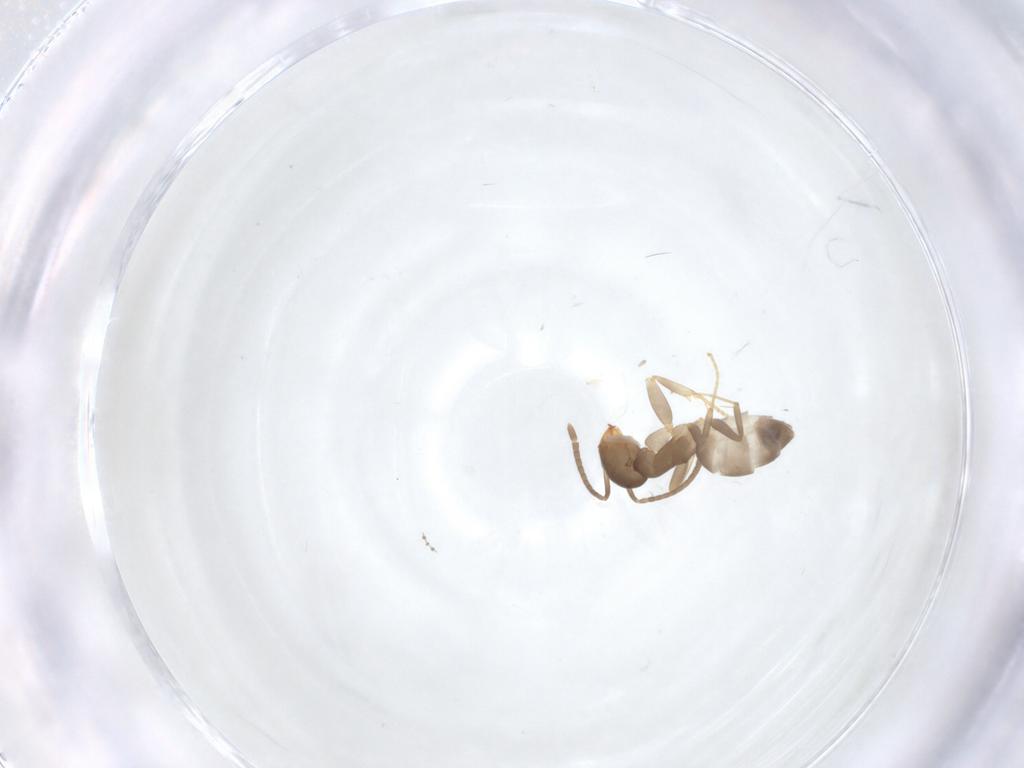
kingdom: Animalia
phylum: Arthropoda
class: Insecta
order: Hymenoptera
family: Formicidae
